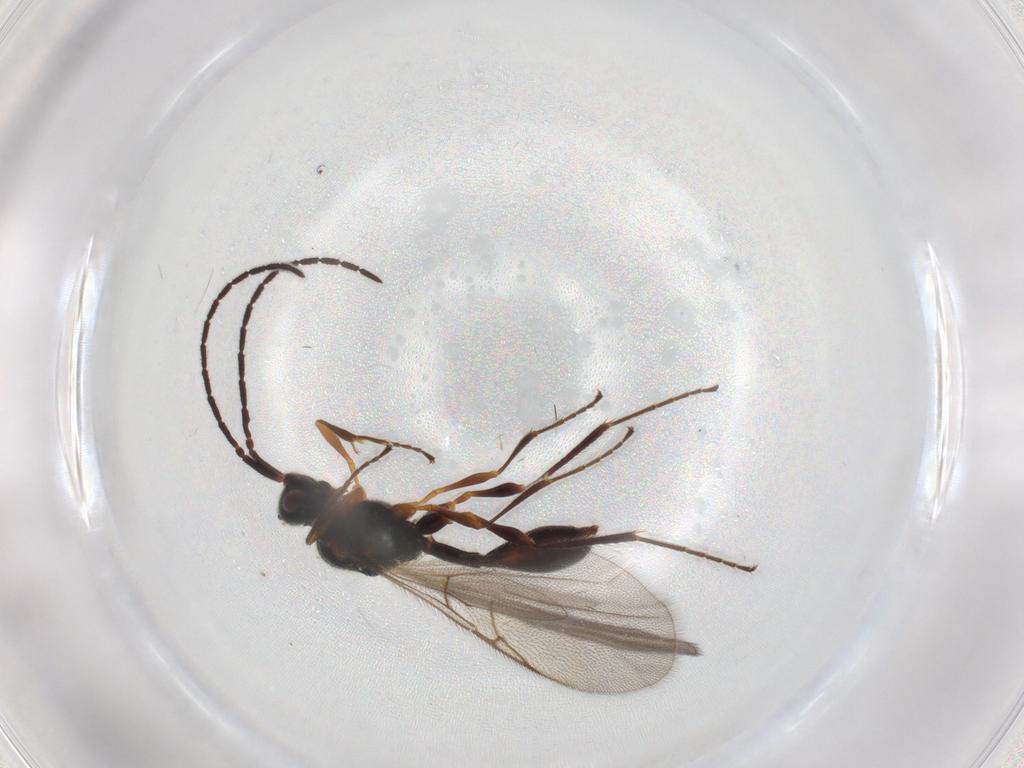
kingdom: Animalia
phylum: Arthropoda
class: Insecta
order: Hymenoptera
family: Diapriidae
